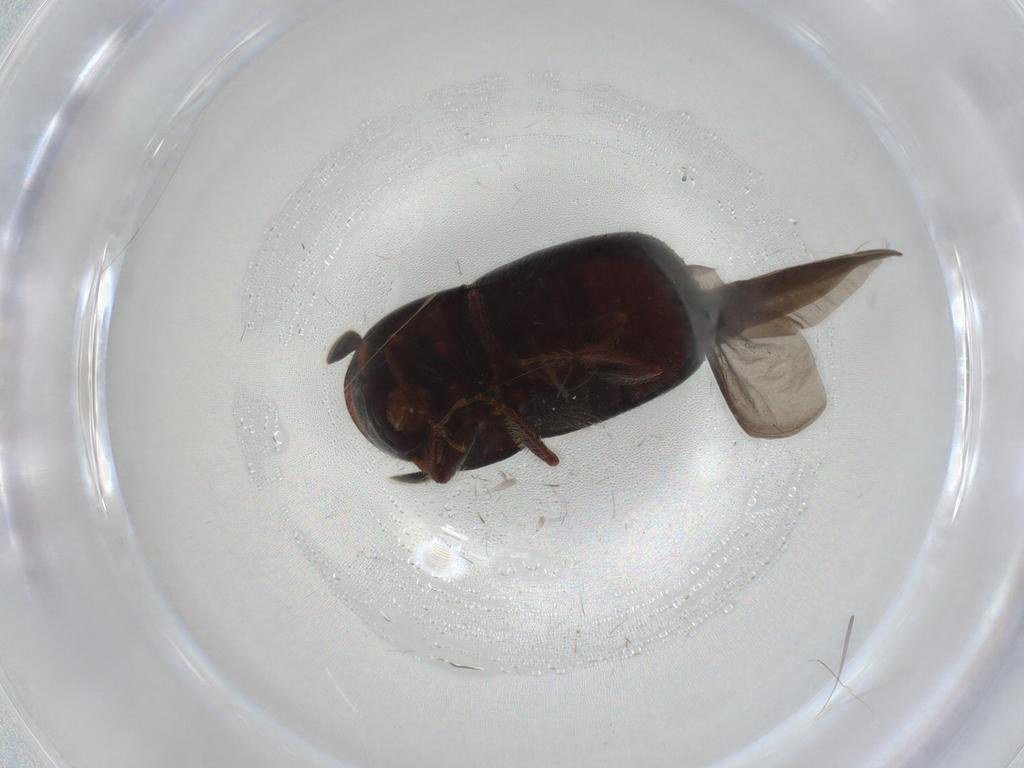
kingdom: Animalia
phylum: Arthropoda
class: Insecta
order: Coleoptera
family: Curculionidae
